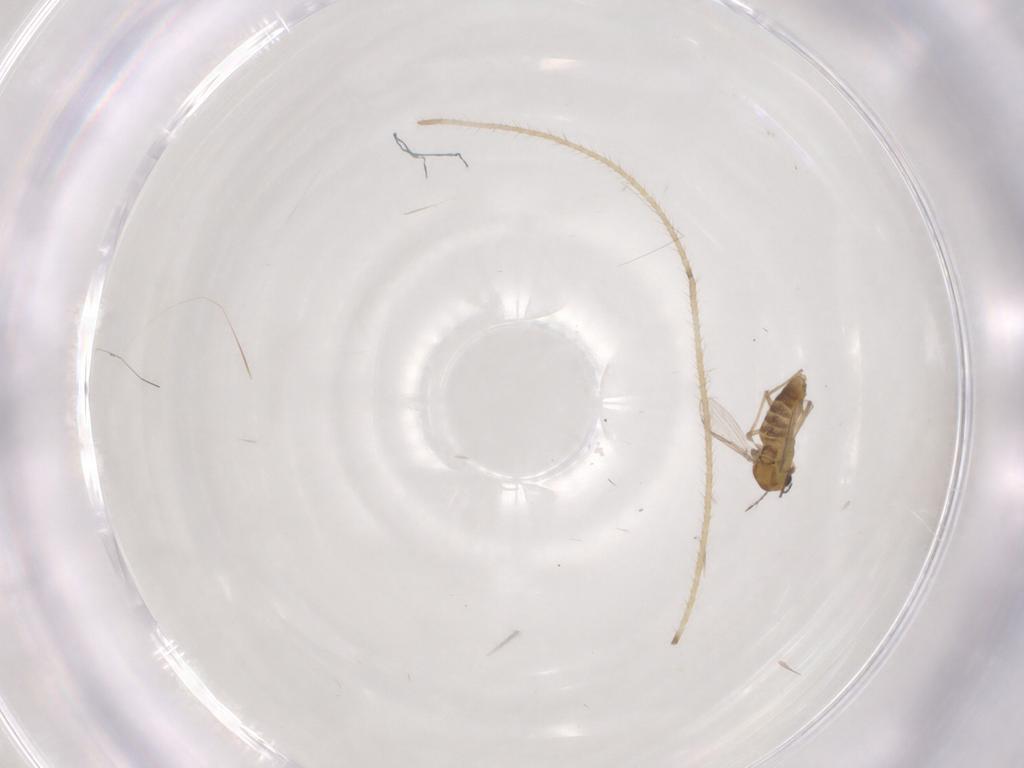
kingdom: Animalia
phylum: Arthropoda
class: Insecta
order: Diptera
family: Chironomidae
